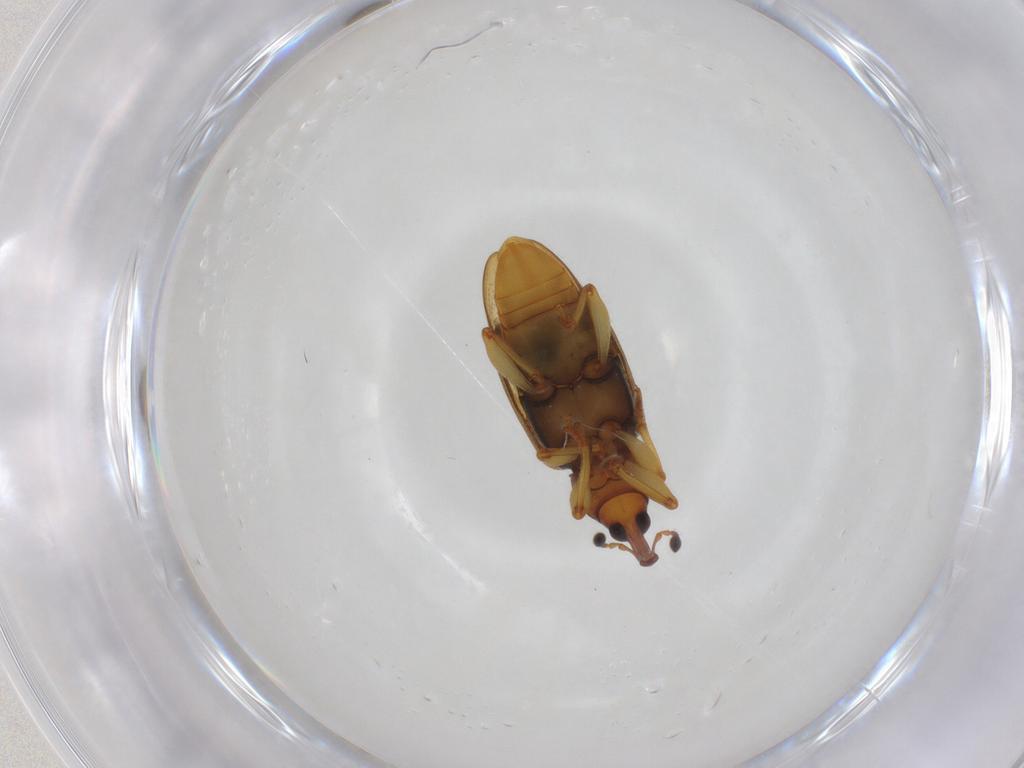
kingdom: Animalia
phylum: Arthropoda
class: Insecta
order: Coleoptera
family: Curculionidae
